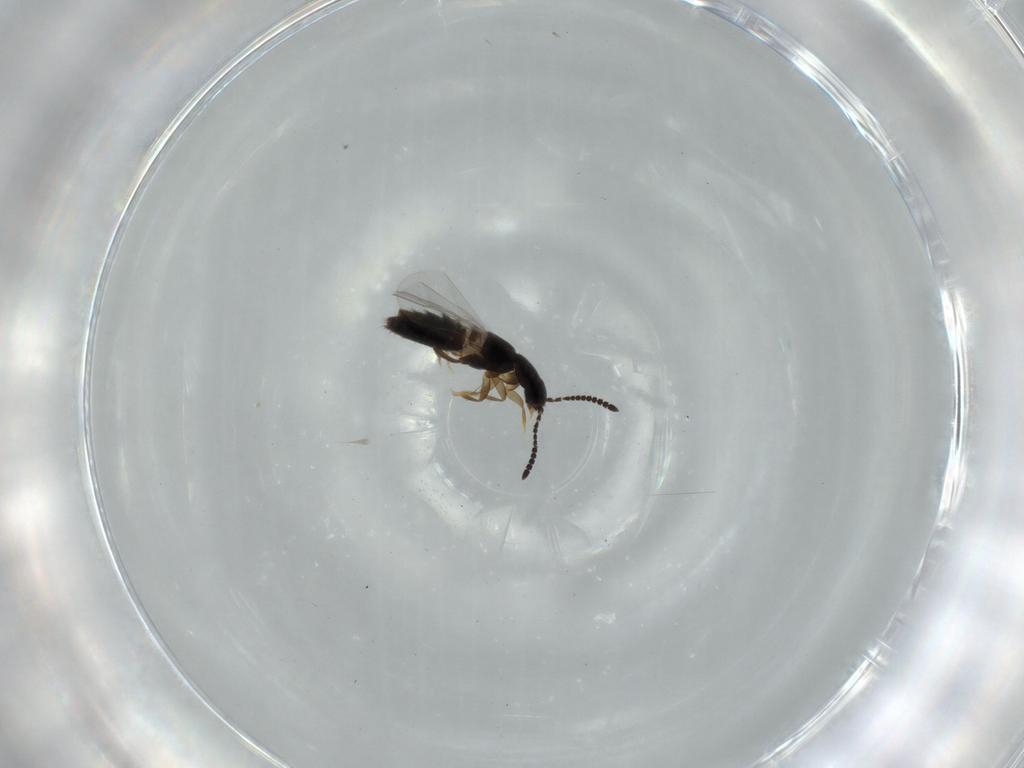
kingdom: Animalia
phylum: Arthropoda
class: Insecta
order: Coleoptera
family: Staphylinidae
